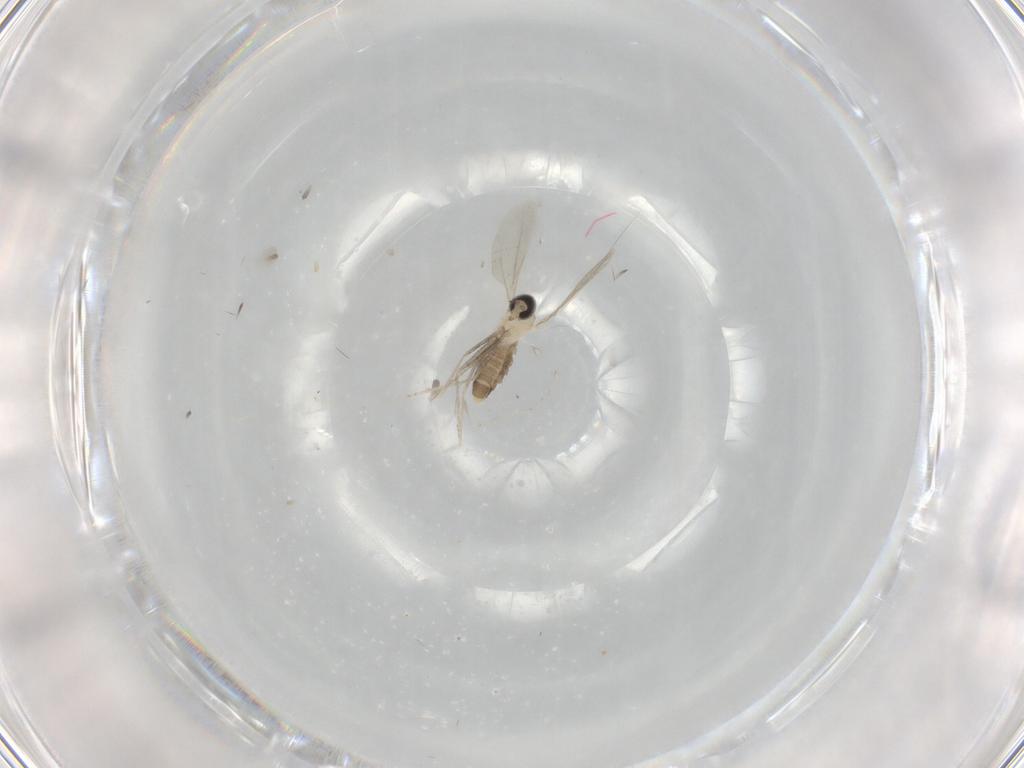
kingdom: Animalia
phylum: Arthropoda
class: Insecta
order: Diptera
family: Cecidomyiidae
